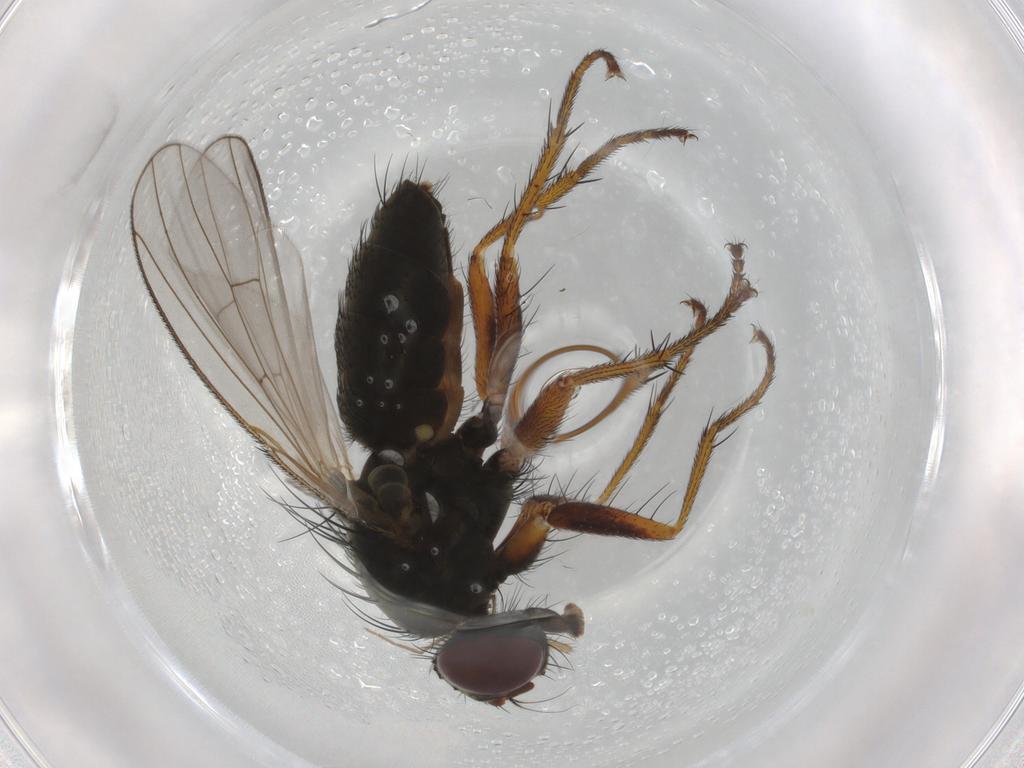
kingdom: Animalia
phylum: Arthropoda
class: Insecta
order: Diptera
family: Muscidae
